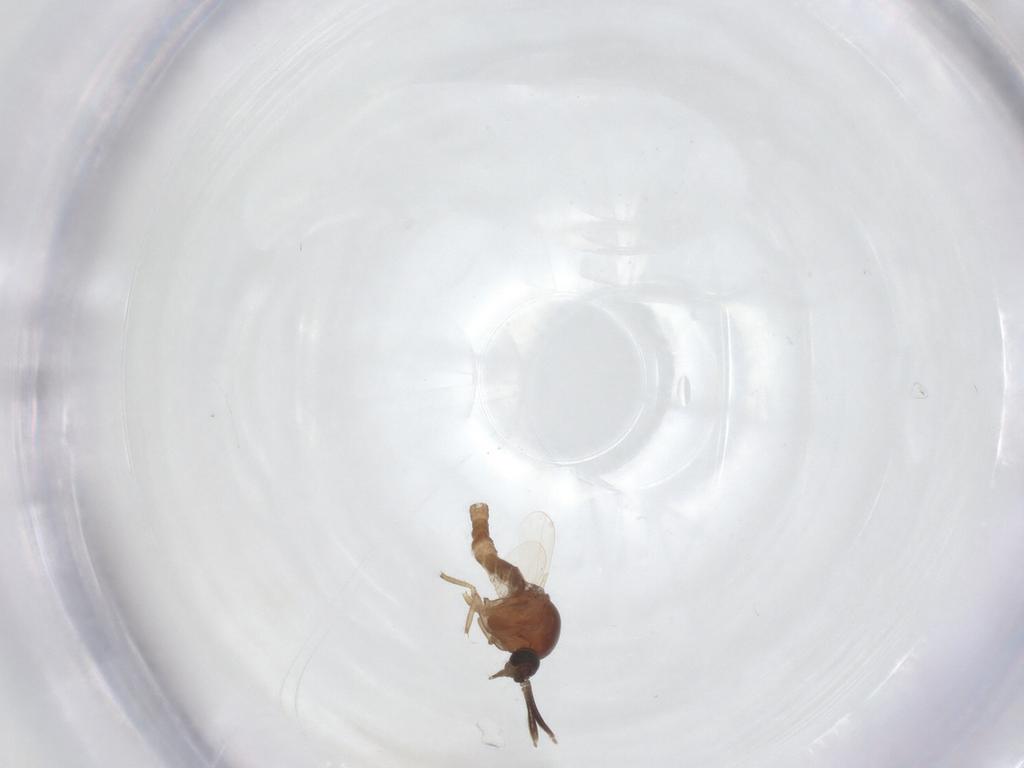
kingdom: Animalia
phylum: Arthropoda
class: Insecta
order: Diptera
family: Ceratopogonidae
